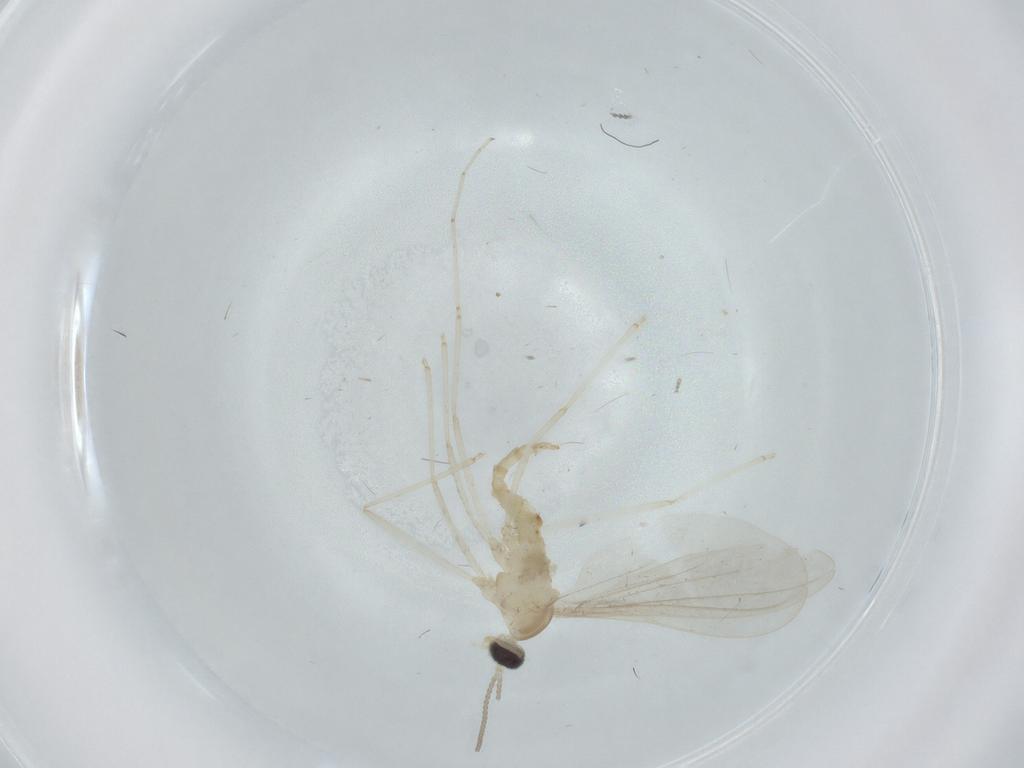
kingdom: Animalia
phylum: Arthropoda
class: Insecta
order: Diptera
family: Cecidomyiidae
